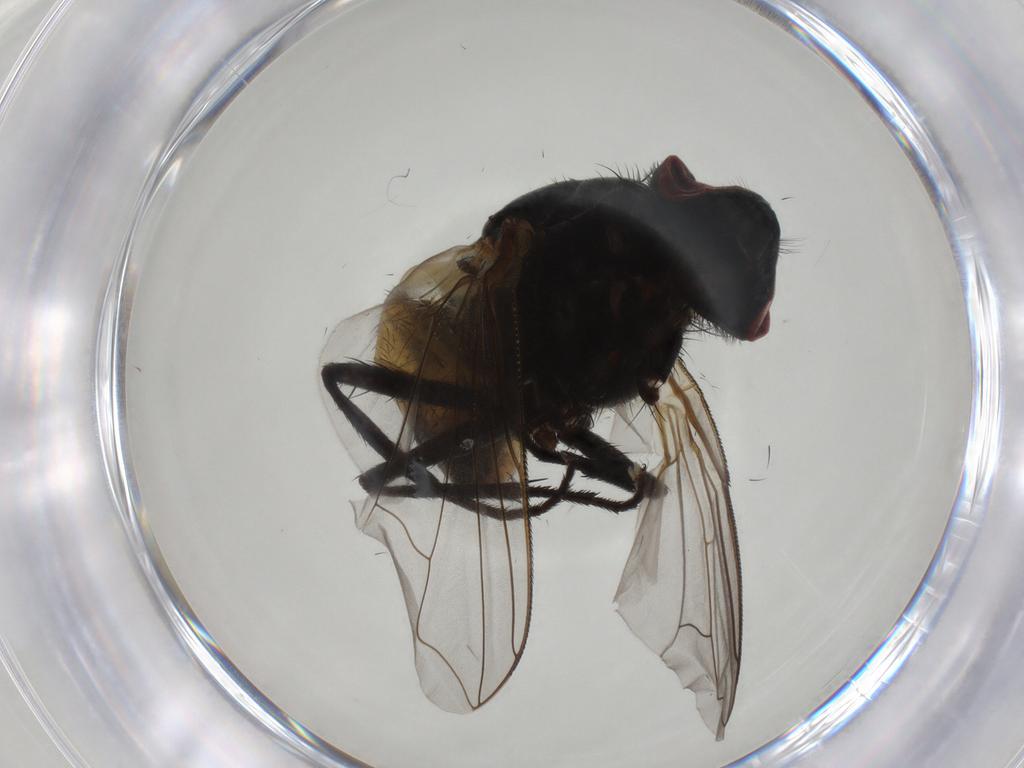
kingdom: Animalia
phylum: Arthropoda
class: Insecta
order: Diptera
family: Muscidae
